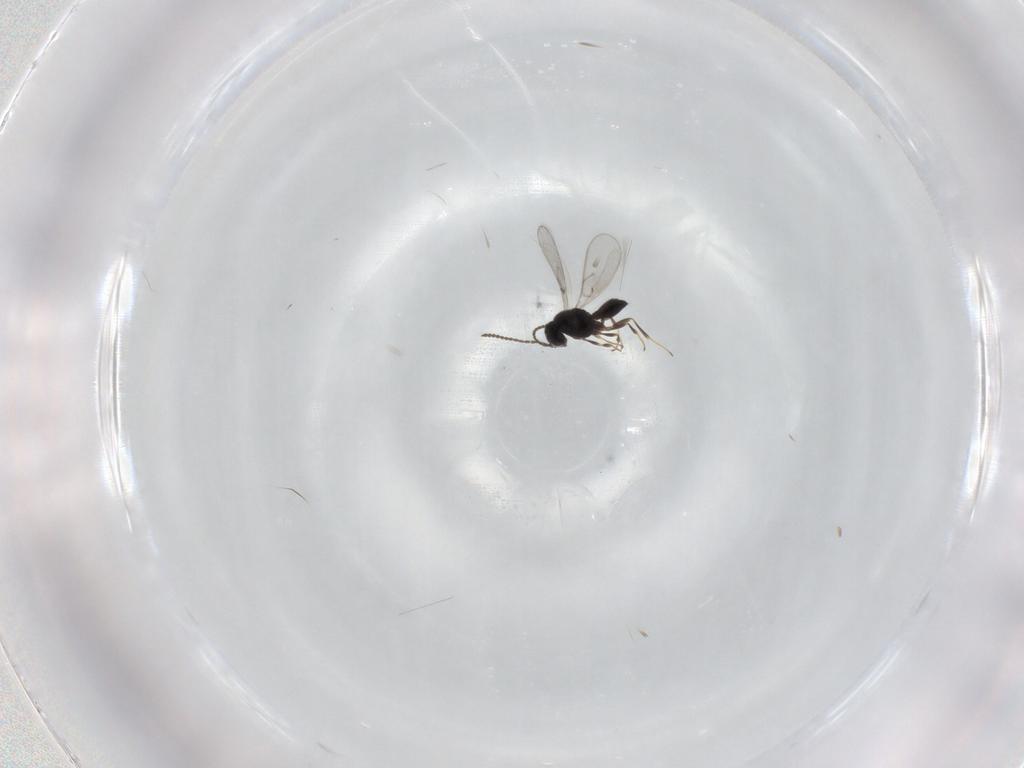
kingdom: Animalia
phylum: Arthropoda
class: Insecta
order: Hymenoptera
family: Scelionidae
